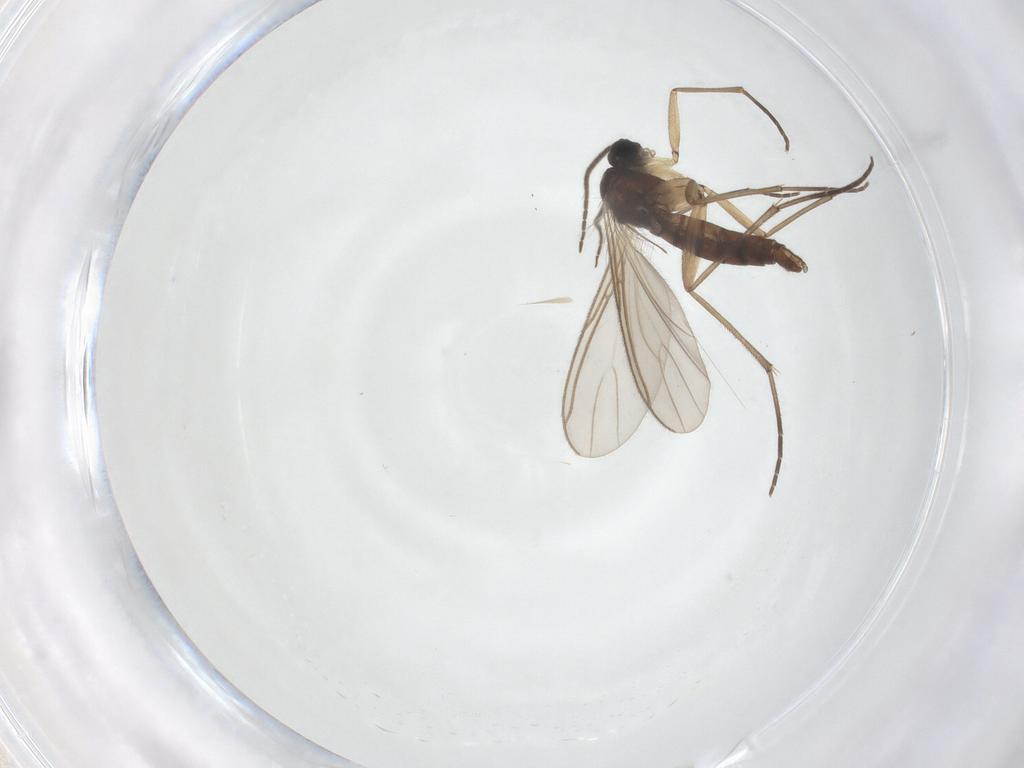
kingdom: Animalia
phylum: Arthropoda
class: Insecta
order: Diptera
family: Sciaridae
